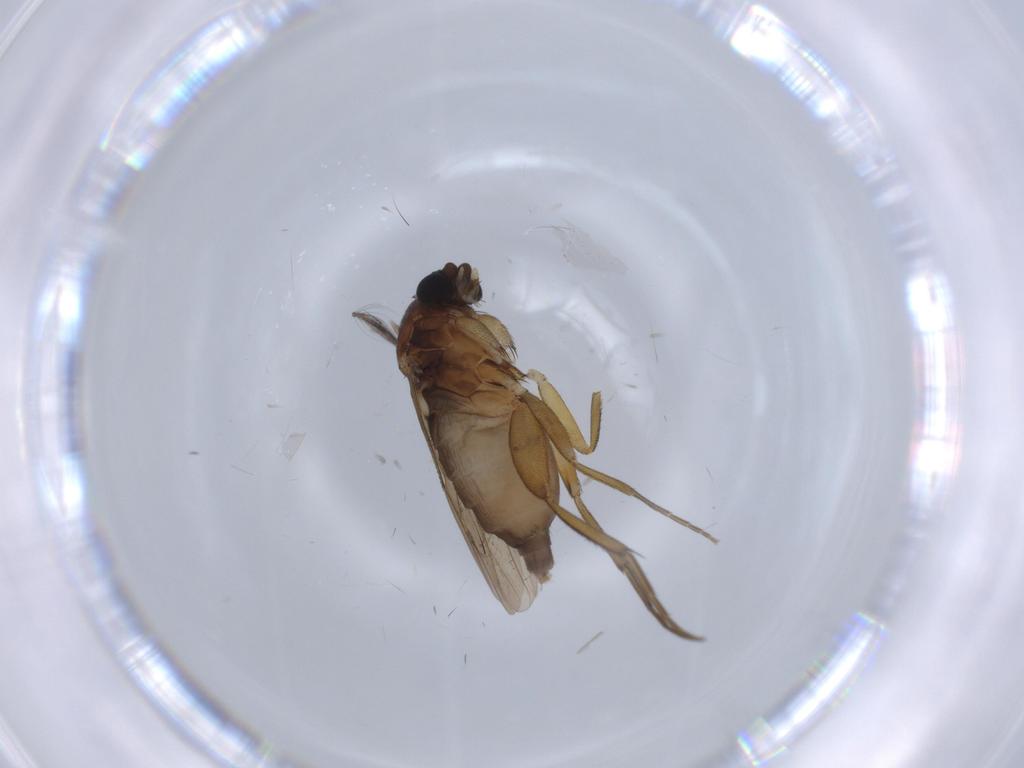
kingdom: Animalia
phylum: Arthropoda
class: Insecta
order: Diptera
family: Phoridae
